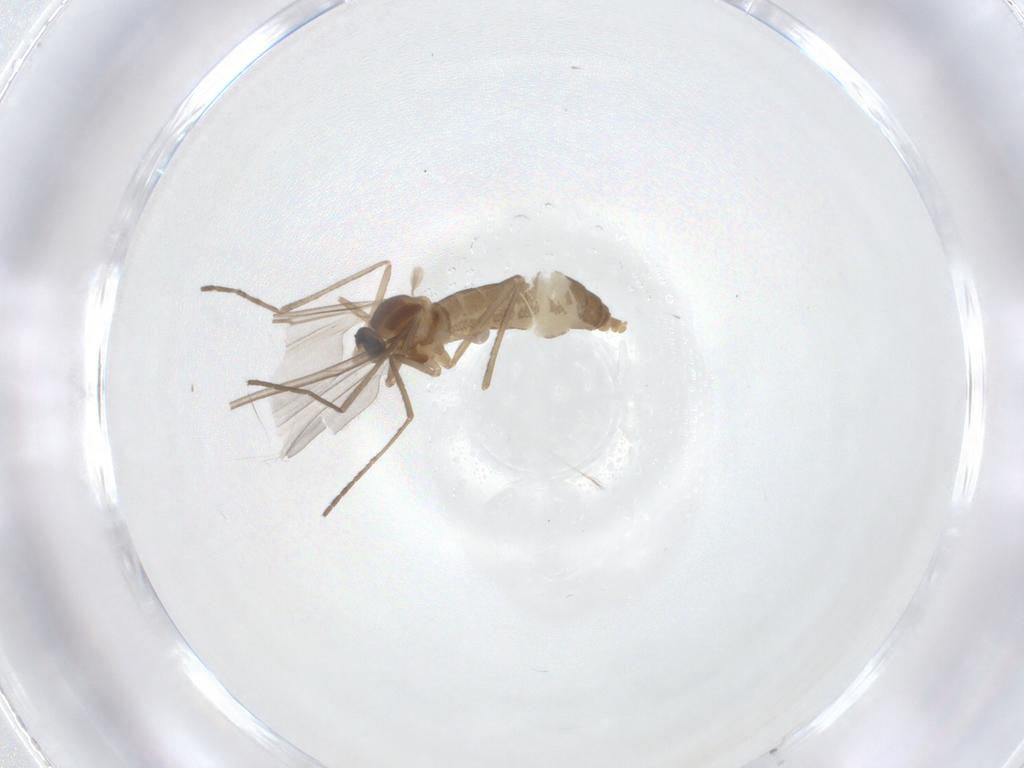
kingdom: Animalia
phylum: Arthropoda
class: Insecta
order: Diptera
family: Cecidomyiidae
